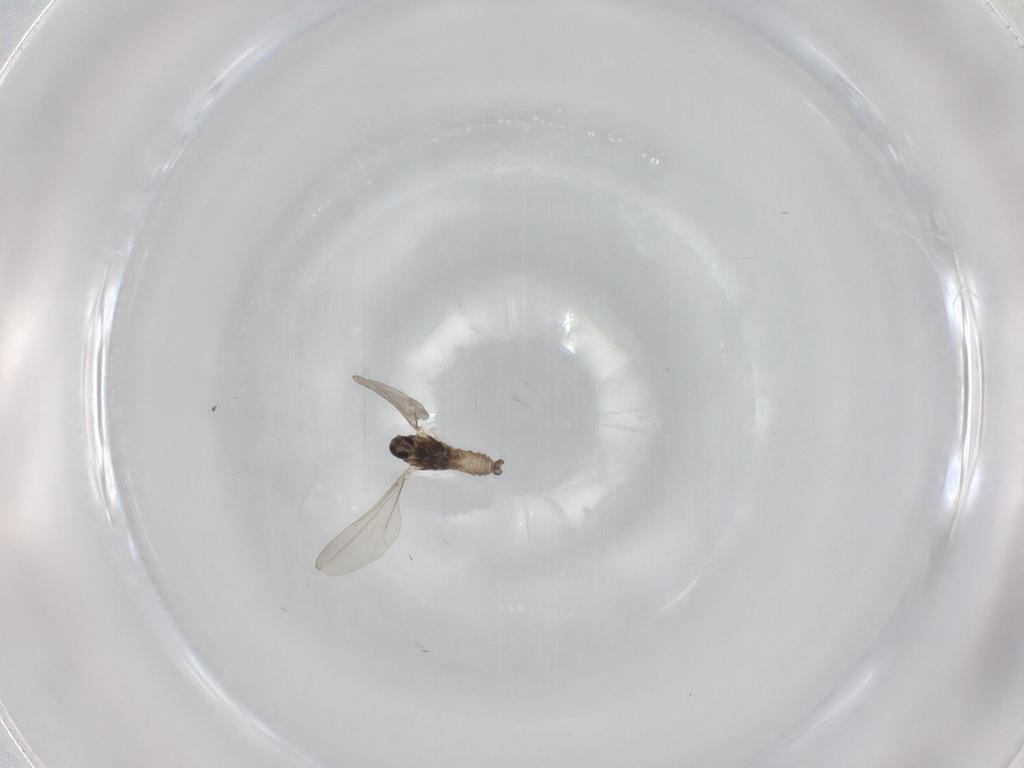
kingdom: Animalia
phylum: Arthropoda
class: Insecta
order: Diptera
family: Cecidomyiidae
